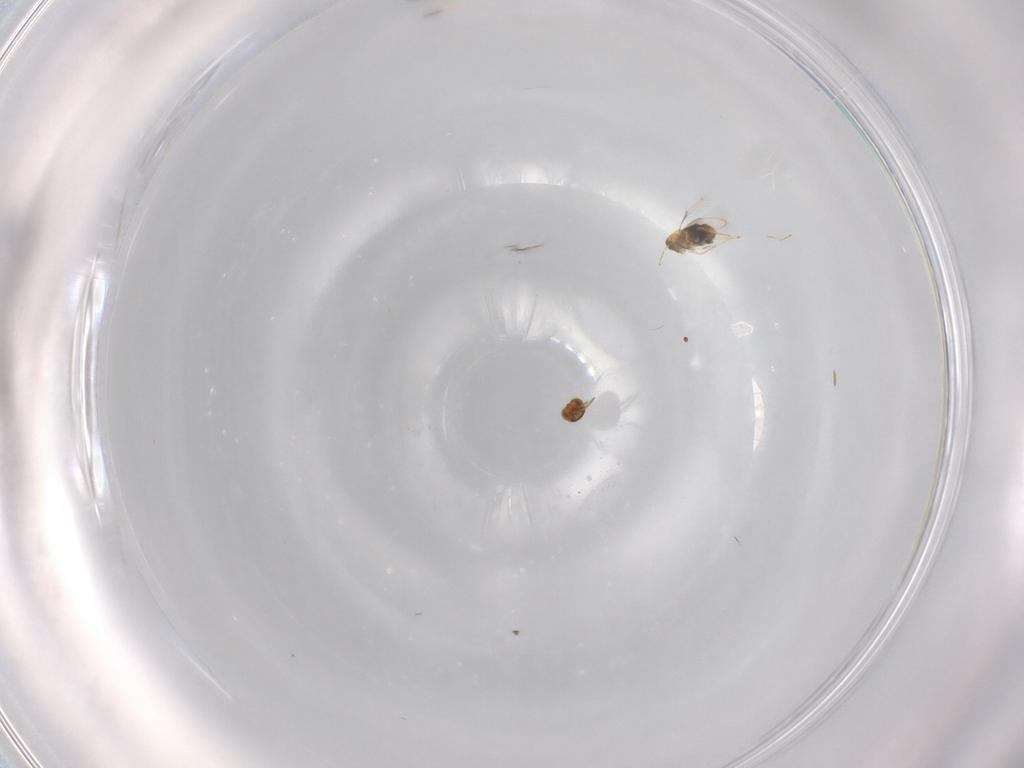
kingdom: Animalia
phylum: Arthropoda
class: Insecta
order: Hymenoptera
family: Aphelinidae
